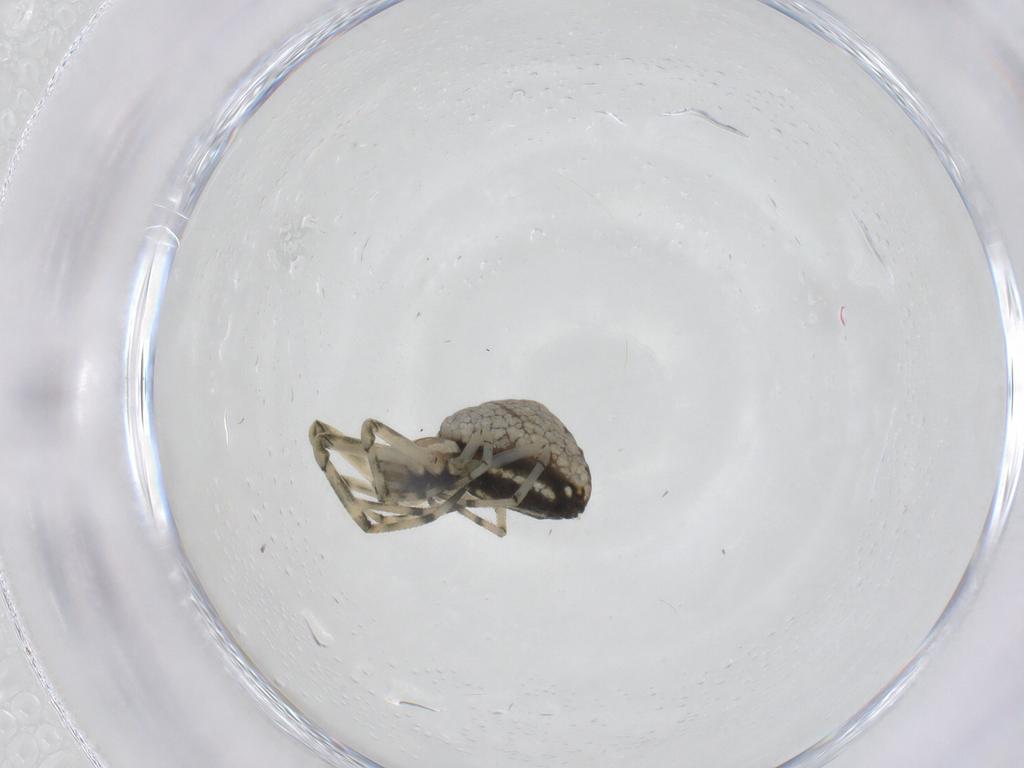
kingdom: Animalia
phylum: Arthropoda
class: Arachnida
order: Araneae
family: Tetragnathidae
